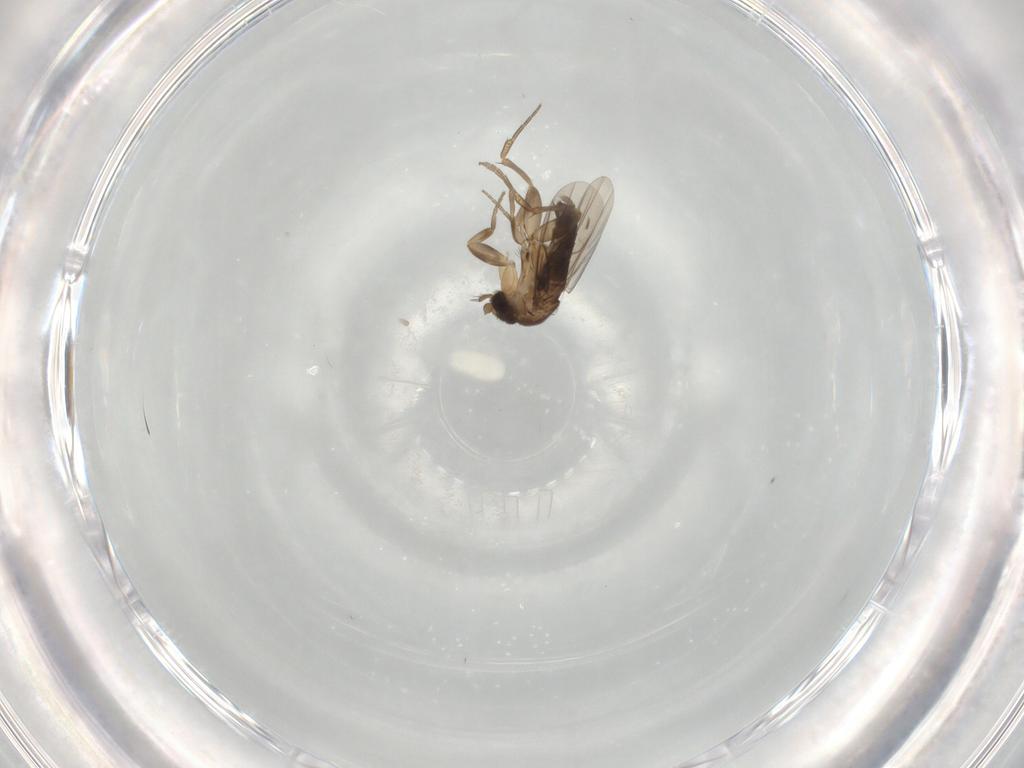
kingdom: Animalia
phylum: Arthropoda
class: Insecta
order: Diptera
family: Phoridae
